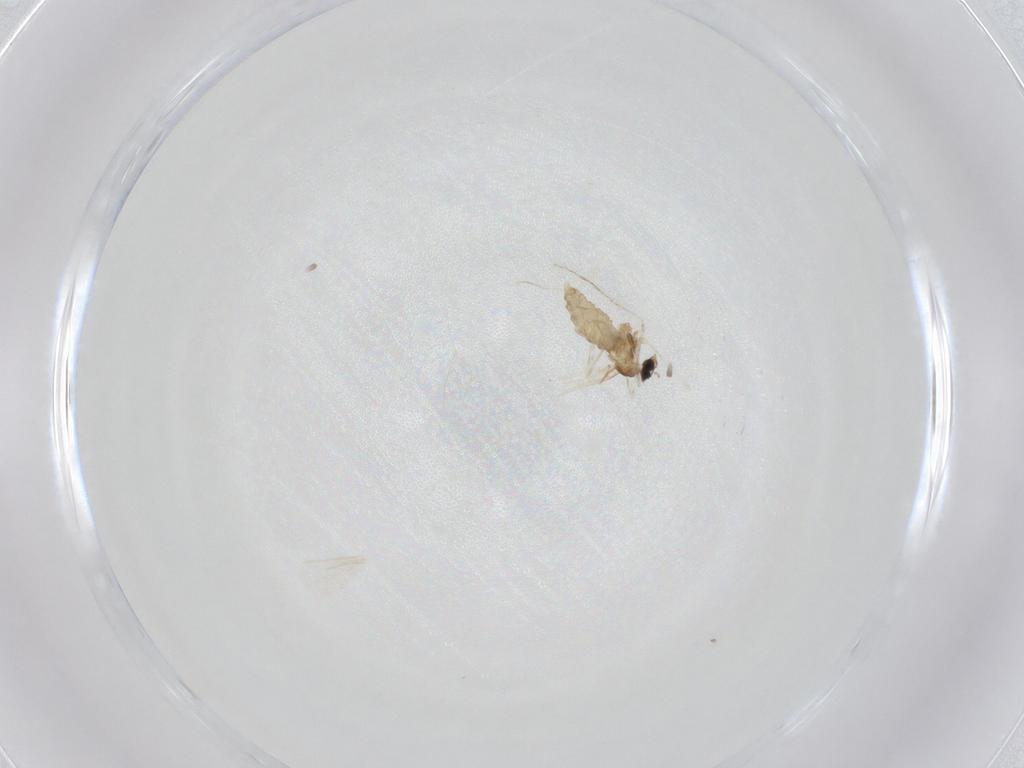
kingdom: Animalia
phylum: Arthropoda
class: Insecta
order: Diptera
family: Cecidomyiidae
